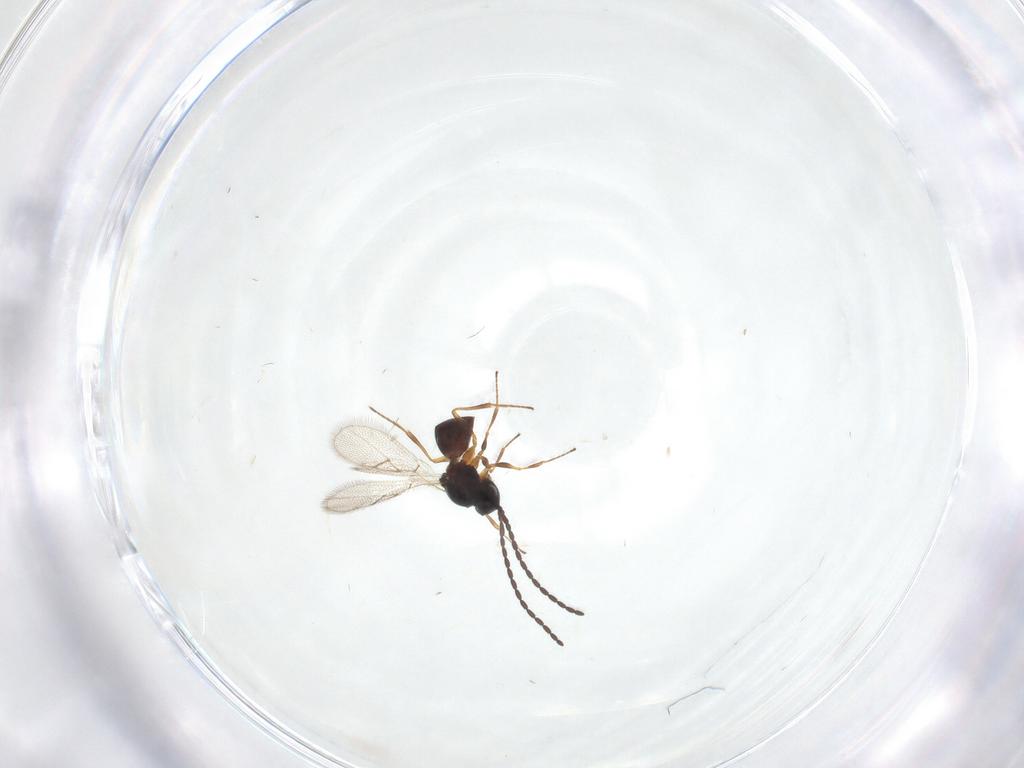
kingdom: Animalia
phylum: Arthropoda
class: Insecta
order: Hymenoptera
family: Figitidae
